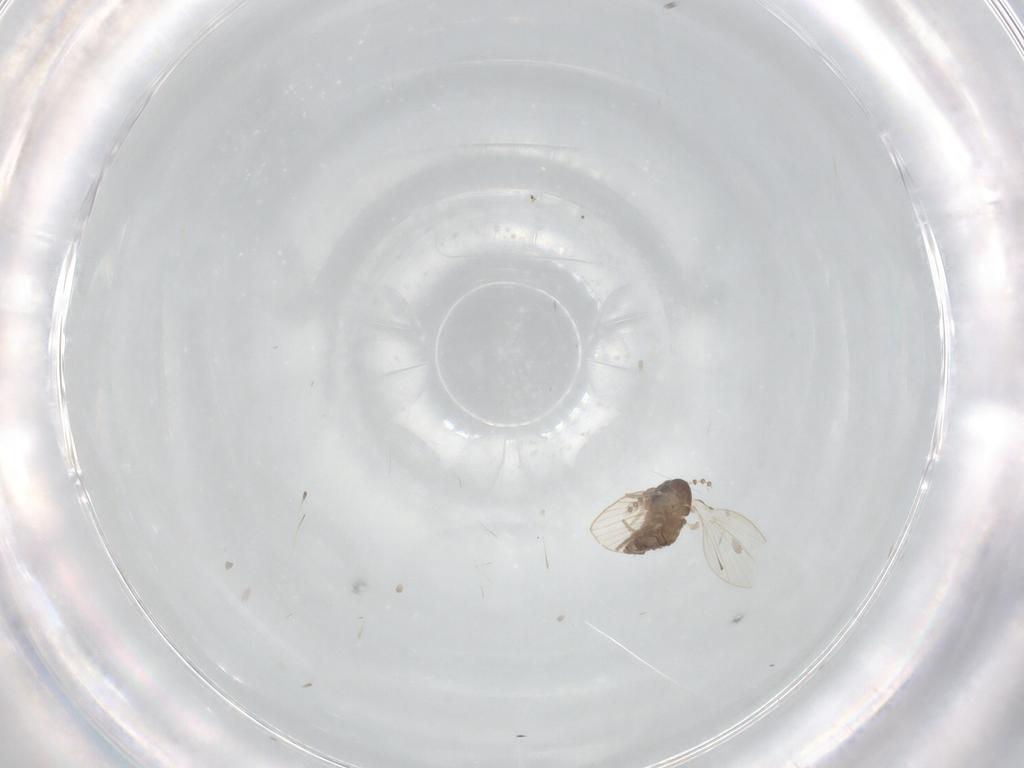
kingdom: Animalia
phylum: Arthropoda
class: Insecta
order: Diptera
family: Psychodidae
